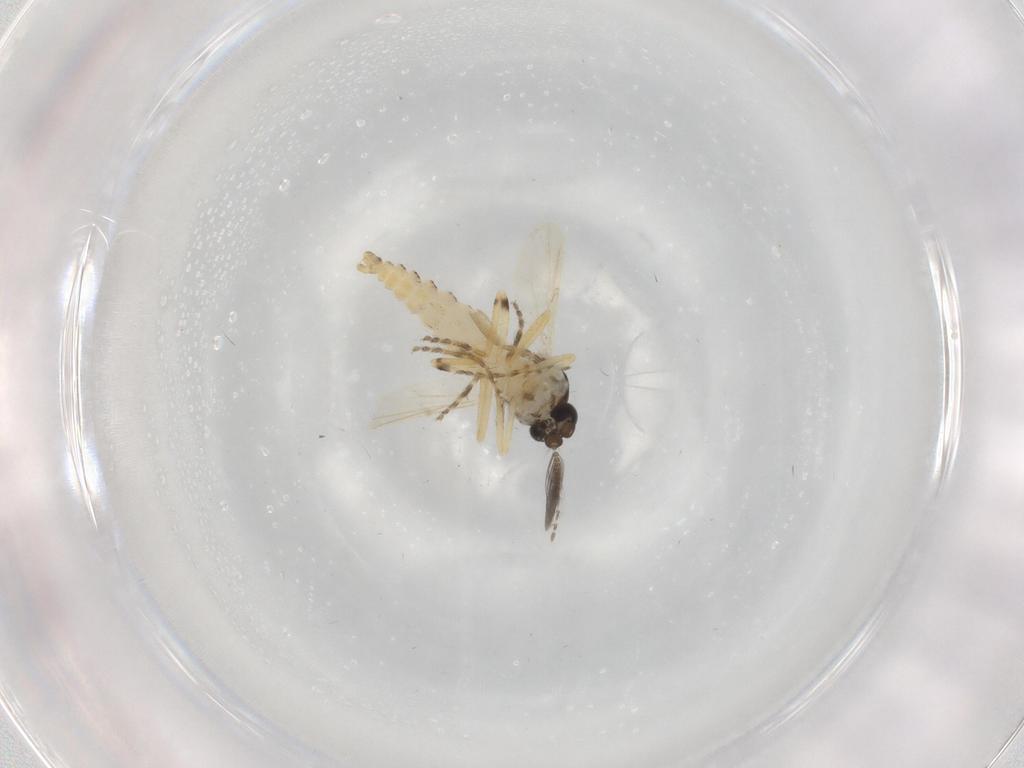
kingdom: Animalia
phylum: Arthropoda
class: Insecta
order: Diptera
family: Ceratopogonidae
